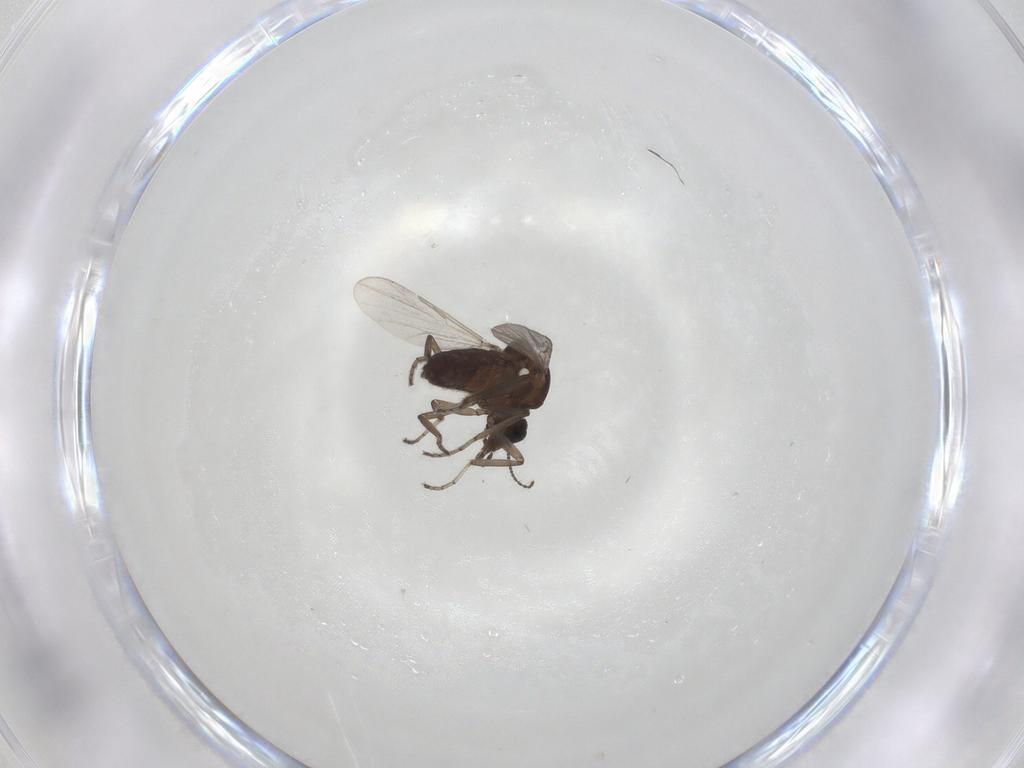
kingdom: Animalia
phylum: Arthropoda
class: Insecta
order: Diptera
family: Ceratopogonidae
